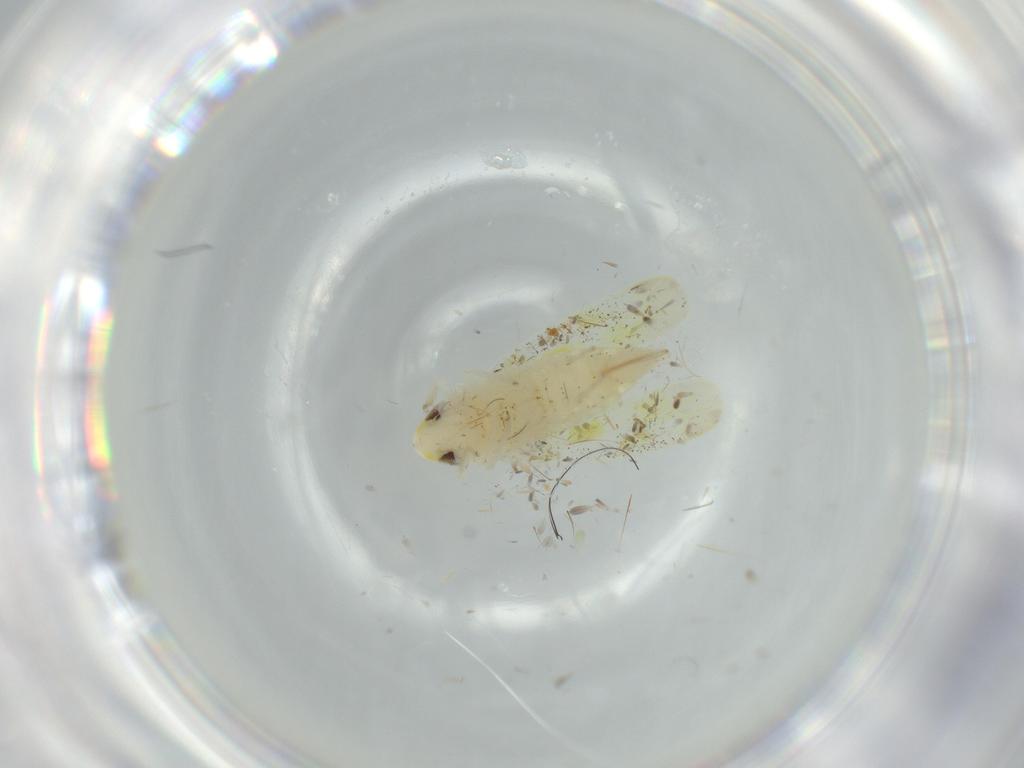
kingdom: Animalia
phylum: Arthropoda
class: Insecta
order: Hemiptera
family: Cicadellidae
